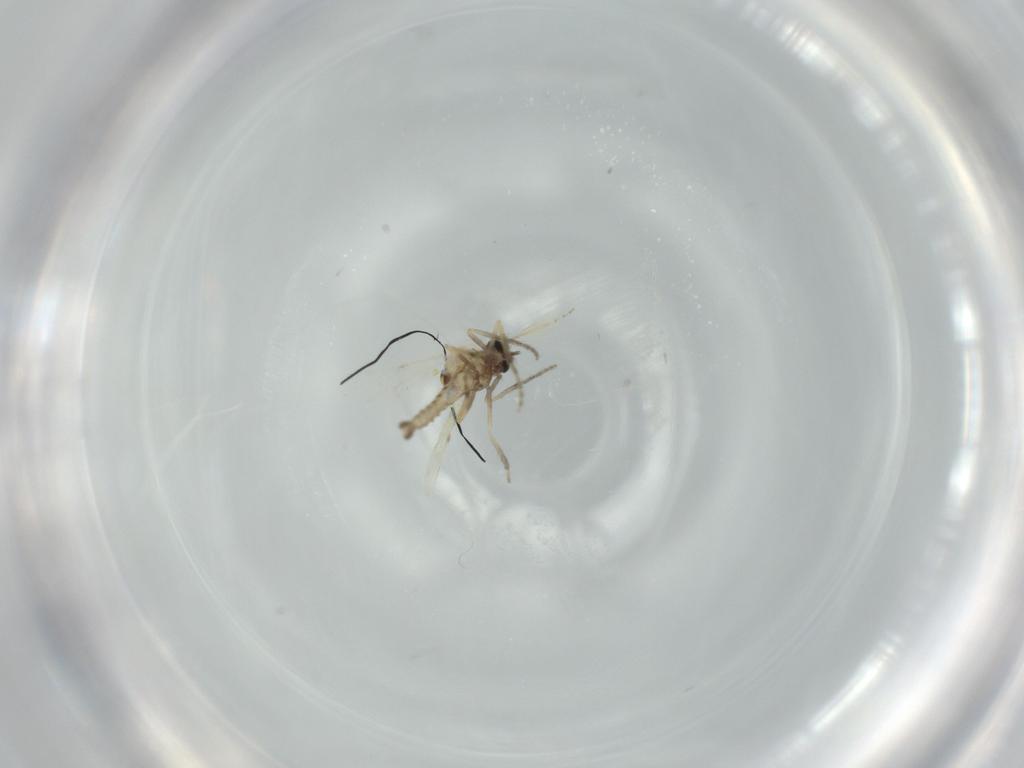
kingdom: Animalia
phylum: Arthropoda
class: Insecta
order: Diptera
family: Ceratopogonidae
